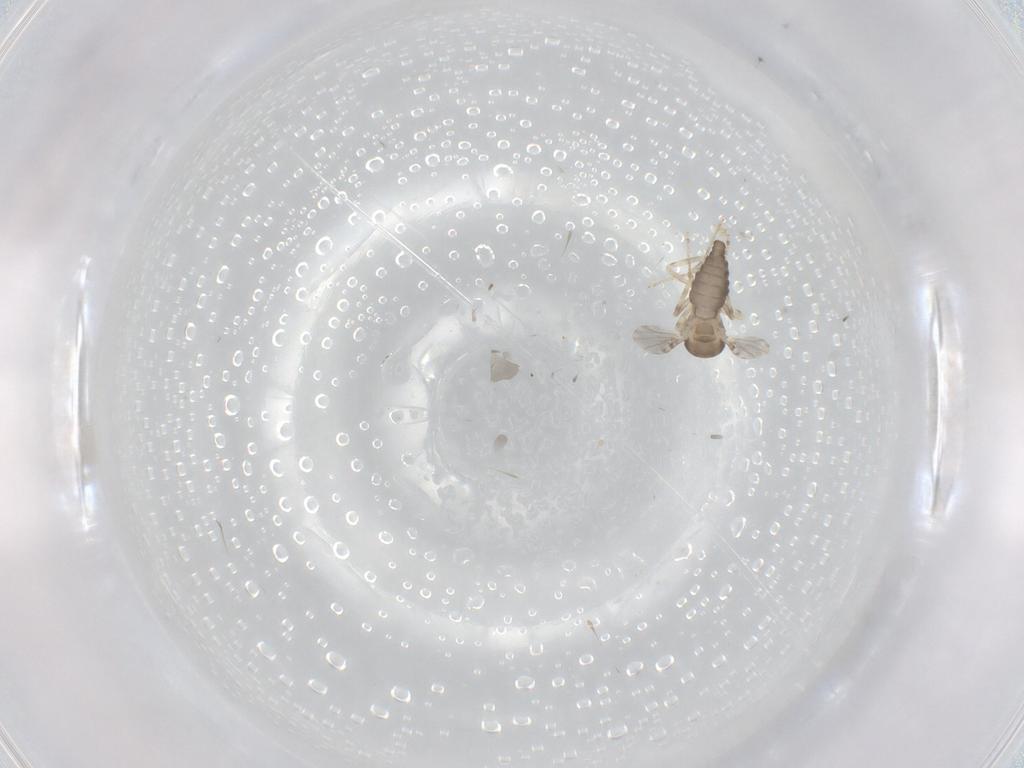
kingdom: Animalia
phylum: Arthropoda
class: Insecta
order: Diptera
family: Ceratopogonidae
